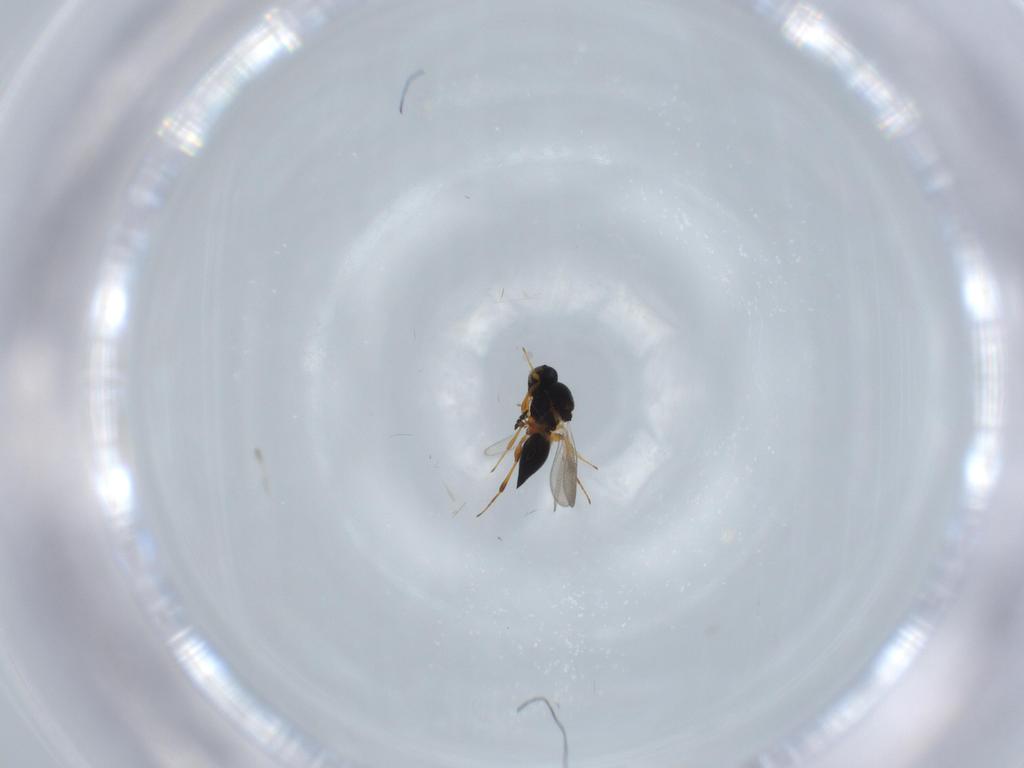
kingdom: Animalia
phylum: Arthropoda
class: Insecta
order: Hymenoptera
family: Platygastridae
